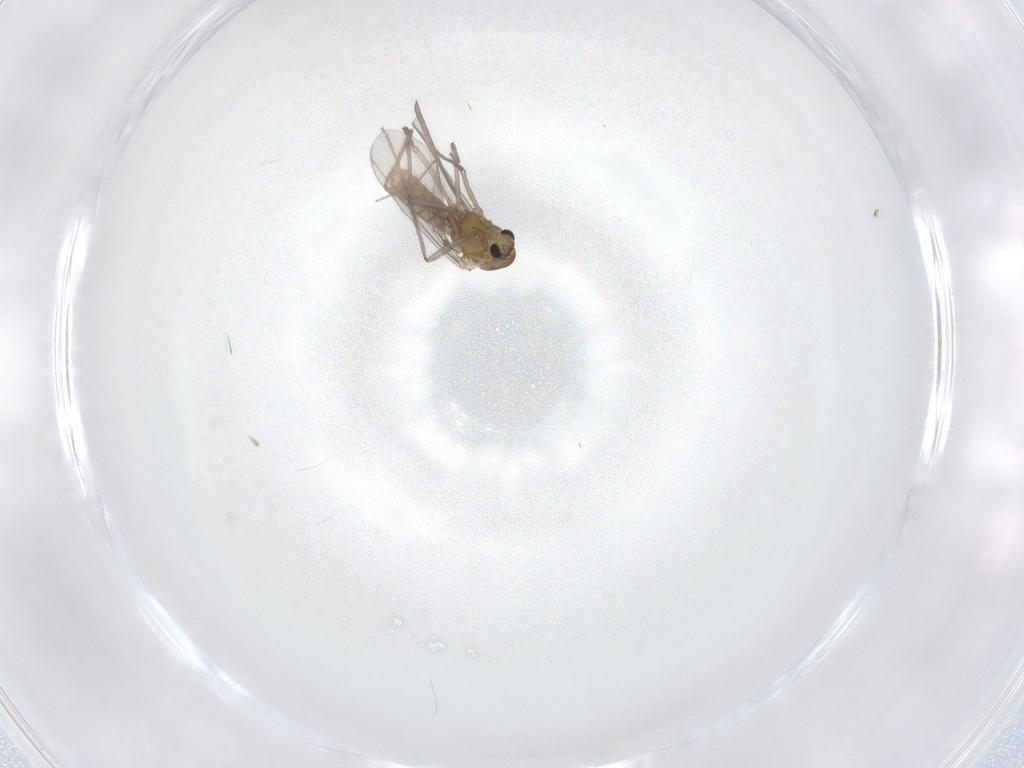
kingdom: Animalia
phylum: Arthropoda
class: Insecta
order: Diptera
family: Chironomidae
